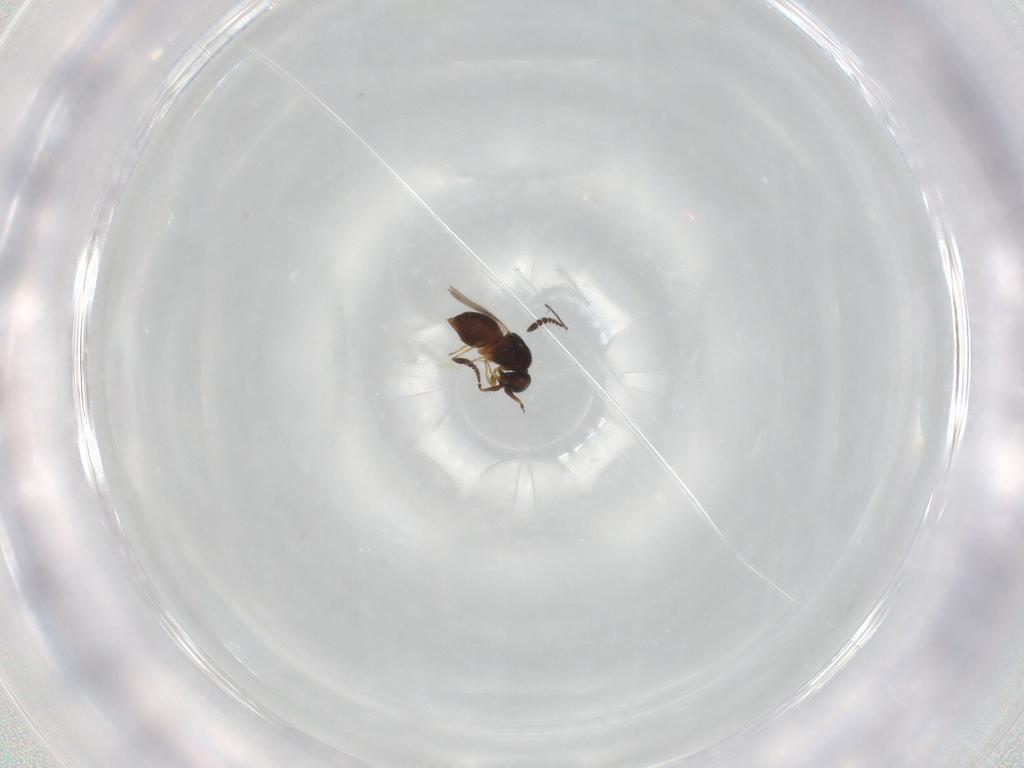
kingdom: Animalia
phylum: Arthropoda
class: Insecta
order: Hymenoptera
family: Ceraphronidae
